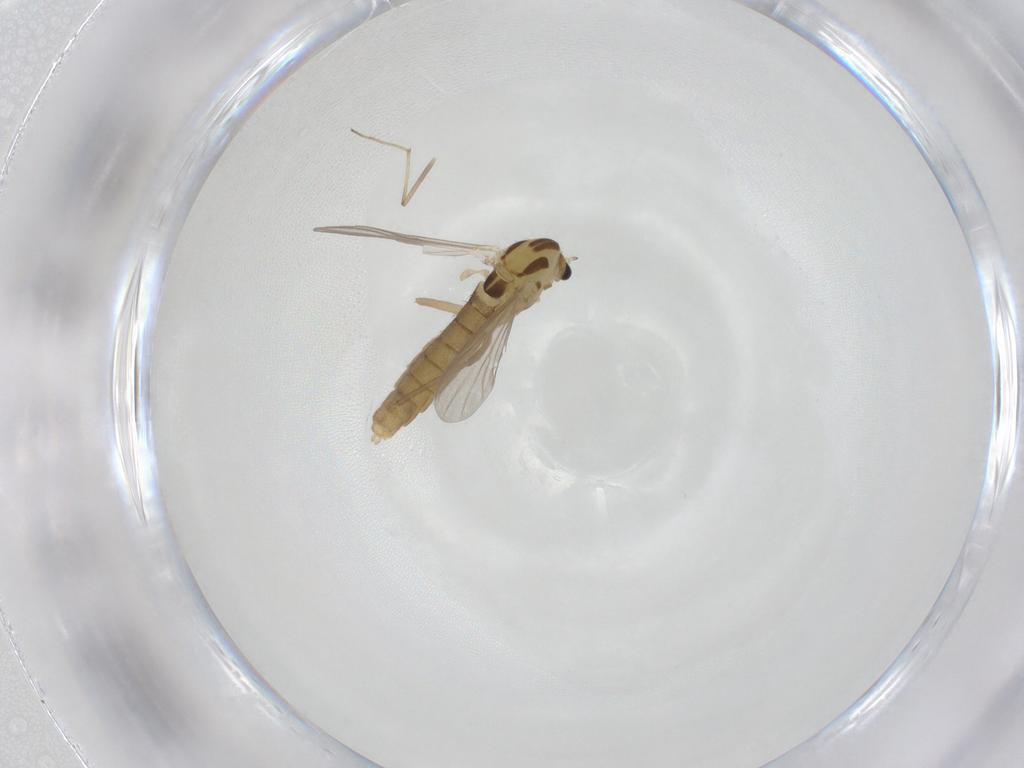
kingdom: Animalia
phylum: Arthropoda
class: Insecta
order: Diptera
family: Chironomidae
